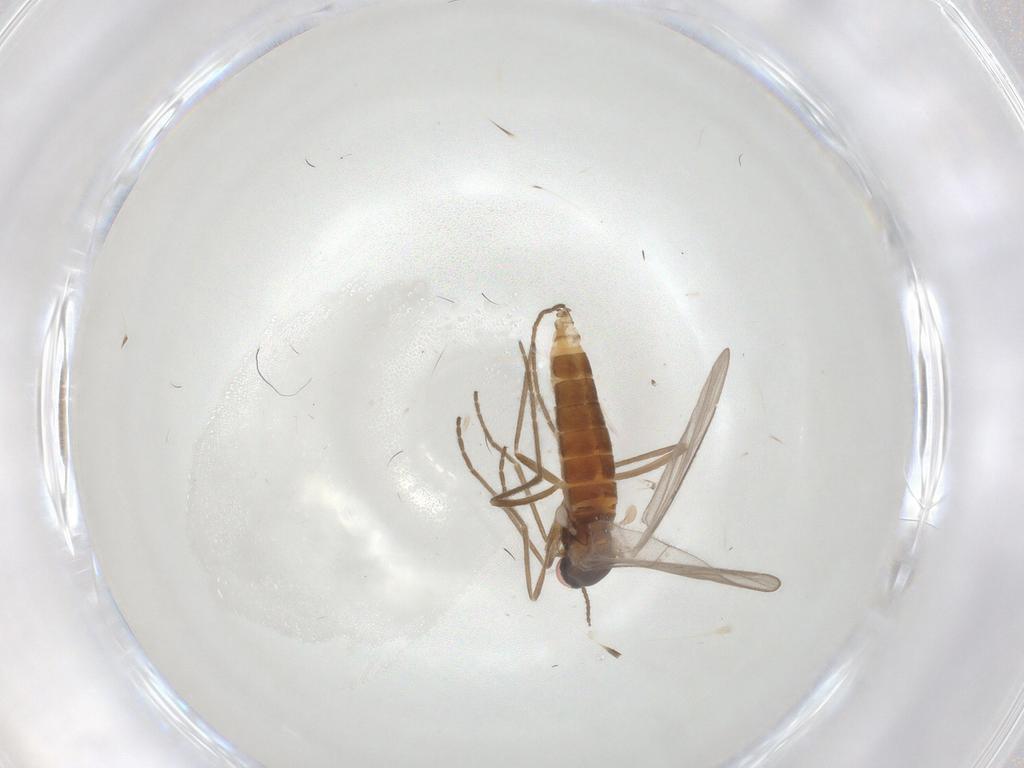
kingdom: Animalia
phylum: Arthropoda
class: Insecta
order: Diptera
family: Cecidomyiidae
